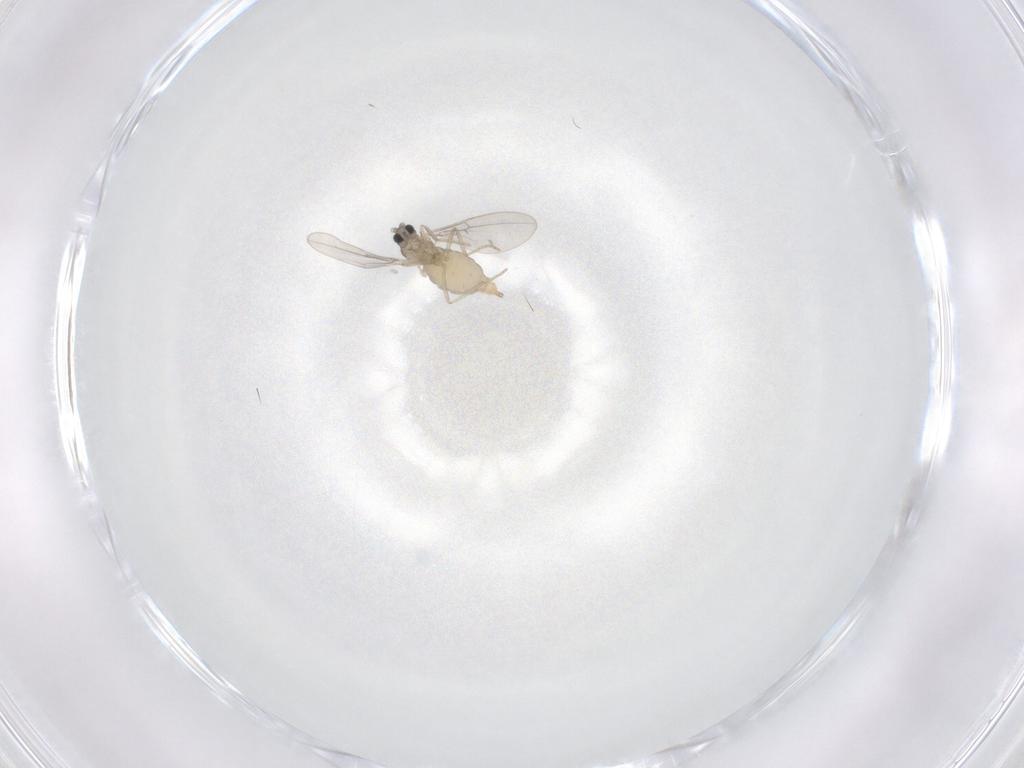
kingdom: Animalia
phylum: Arthropoda
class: Insecta
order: Diptera
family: Cecidomyiidae
